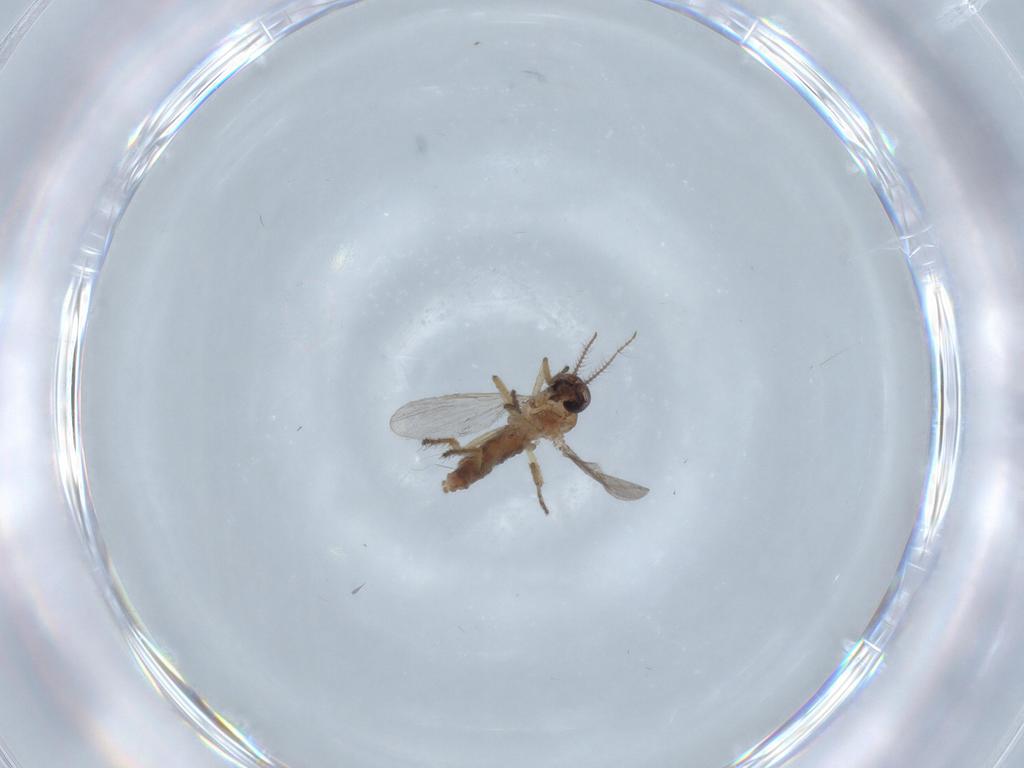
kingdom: Animalia
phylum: Arthropoda
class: Insecta
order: Diptera
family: Ceratopogonidae
